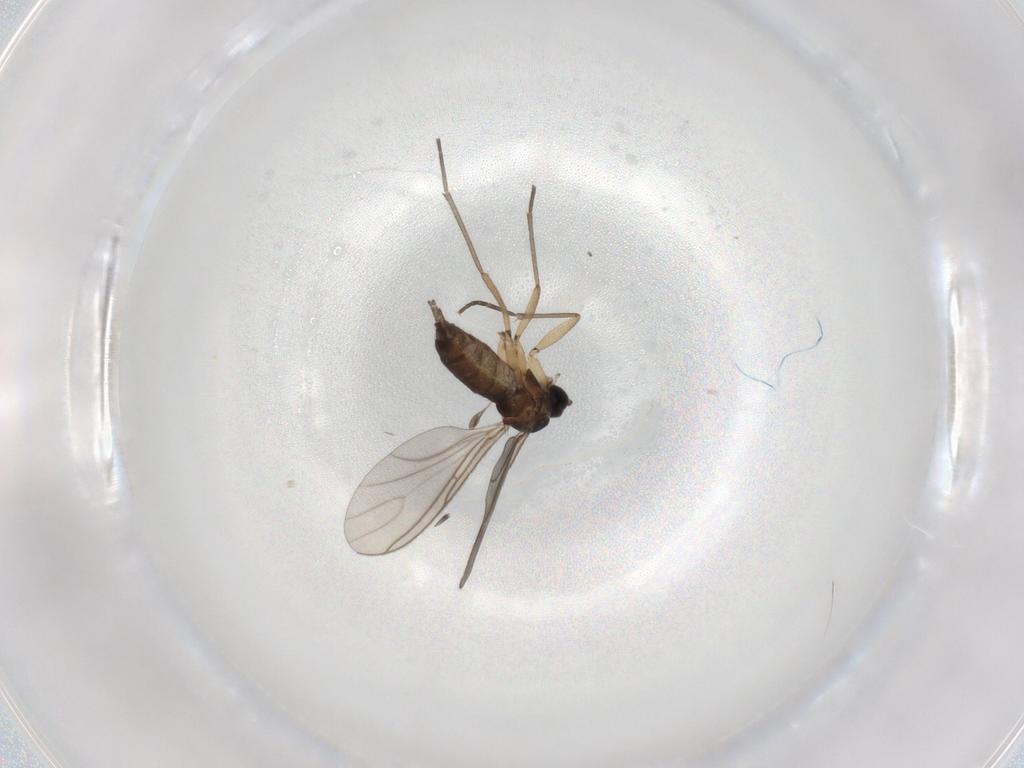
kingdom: Animalia
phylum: Arthropoda
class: Insecta
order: Diptera
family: Sciaridae
